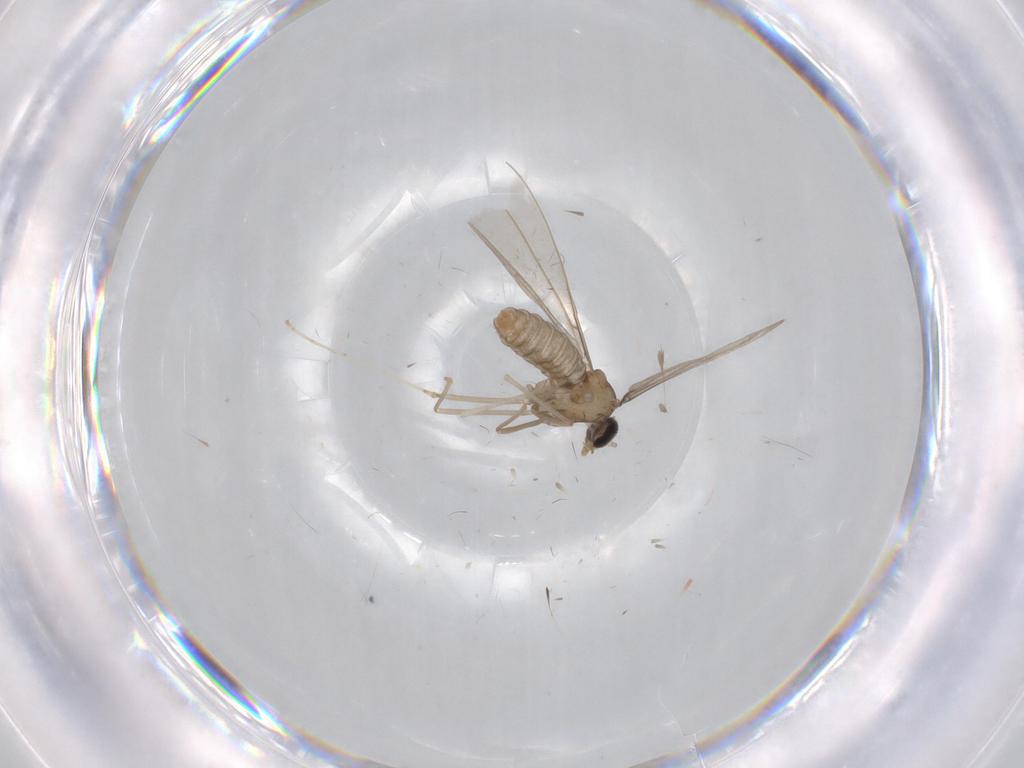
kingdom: Animalia
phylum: Arthropoda
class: Insecta
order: Diptera
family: Cecidomyiidae
